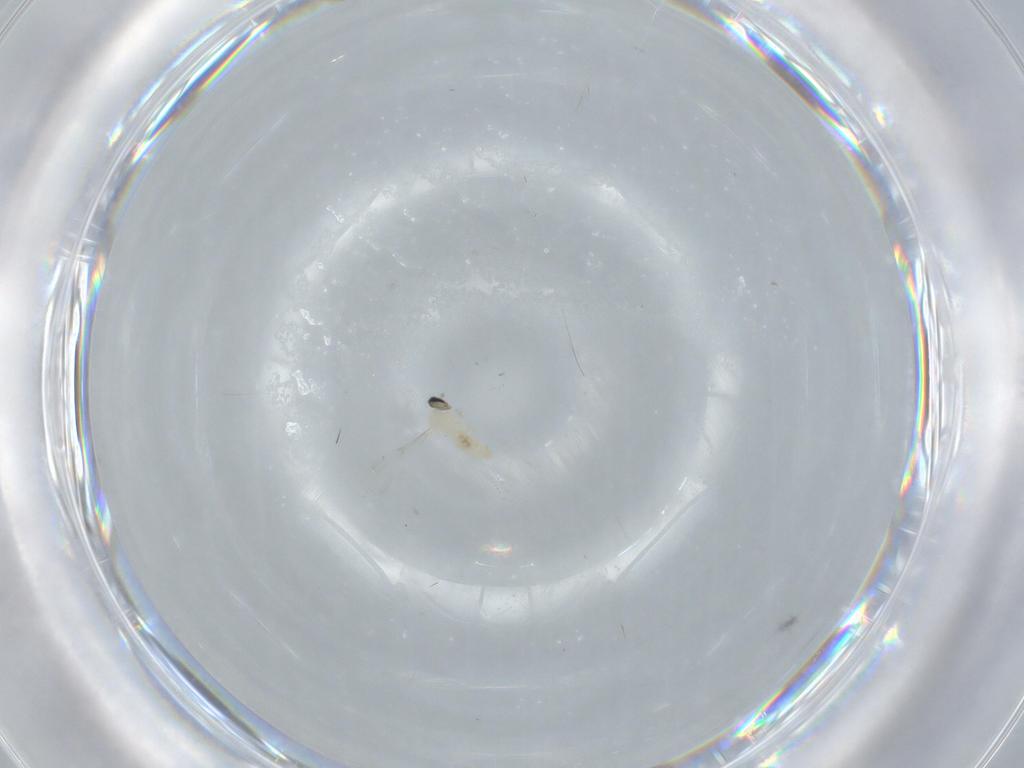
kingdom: Animalia
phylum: Arthropoda
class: Insecta
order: Diptera
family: Cecidomyiidae
